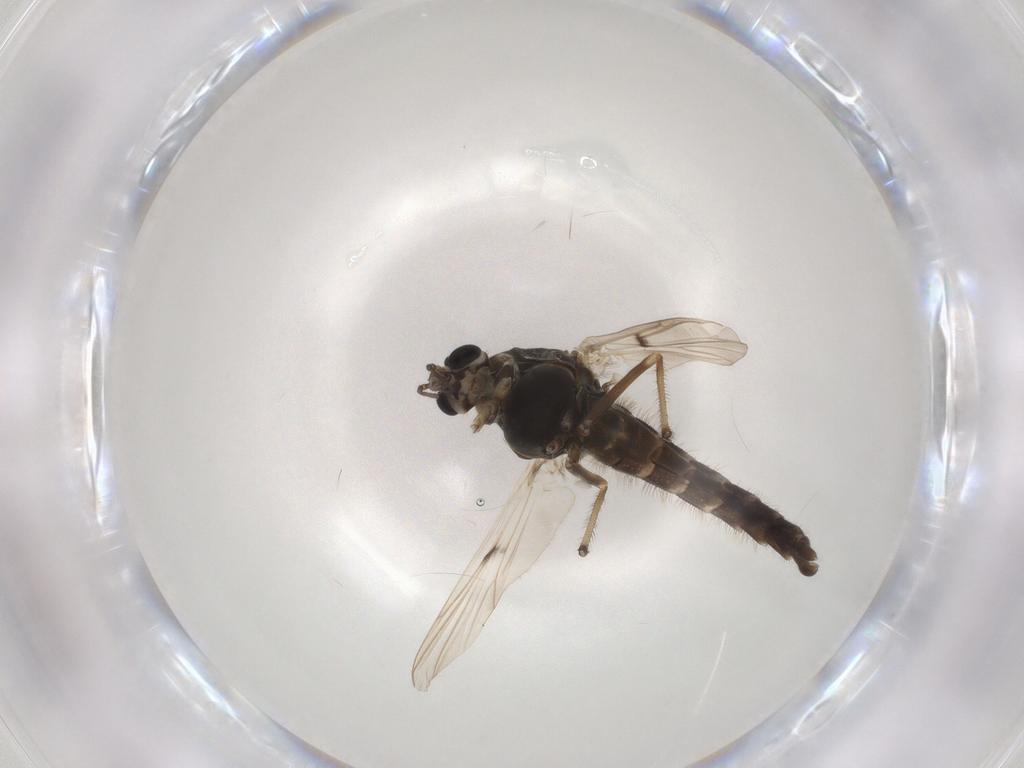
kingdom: Animalia
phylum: Arthropoda
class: Insecta
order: Diptera
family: Chironomidae
